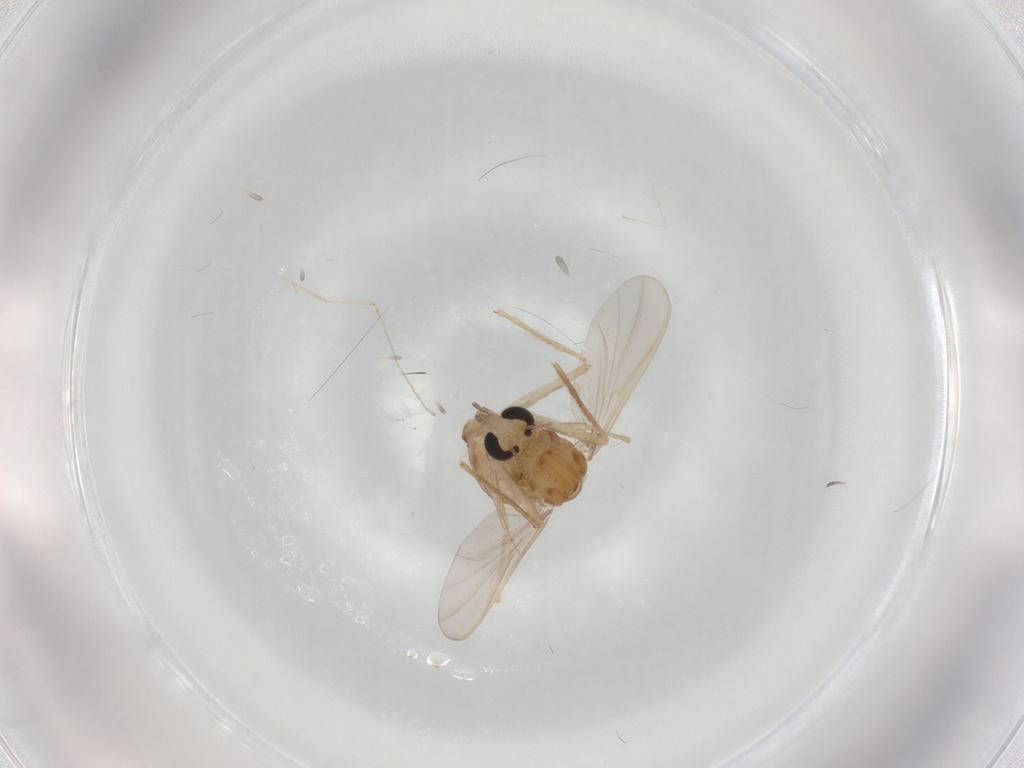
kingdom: Animalia
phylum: Arthropoda
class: Insecta
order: Diptera
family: Chironomidae
